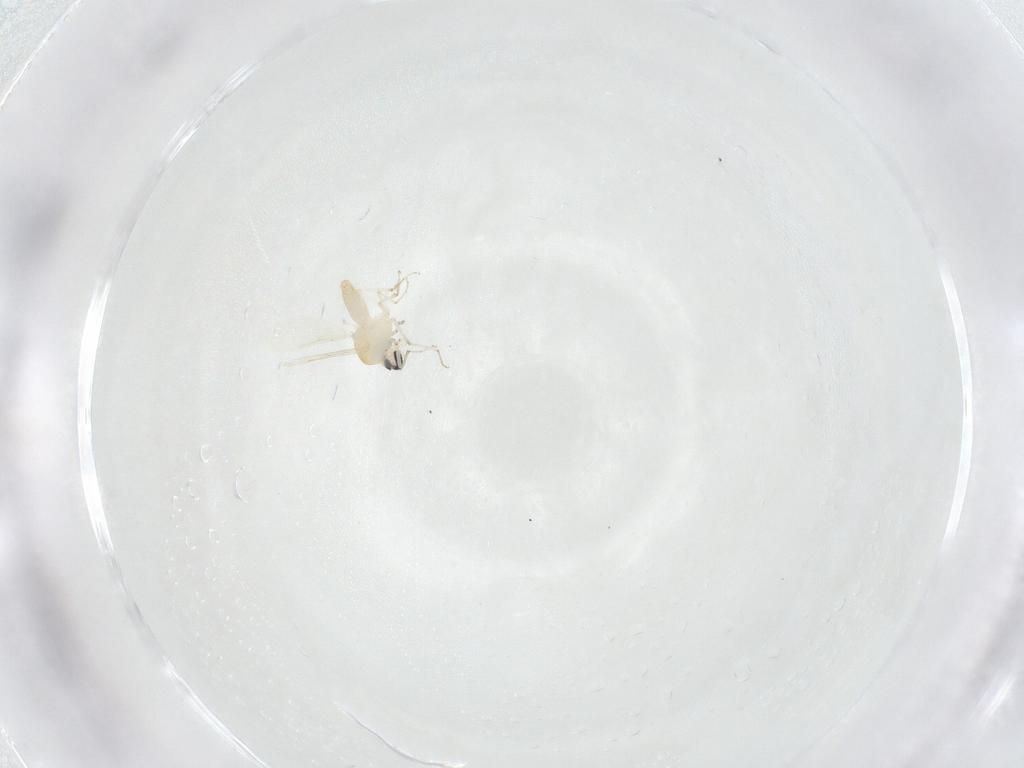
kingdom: Animalia
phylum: Arthropoda
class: Insecta
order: Diptera
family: Ceratopogonidae
